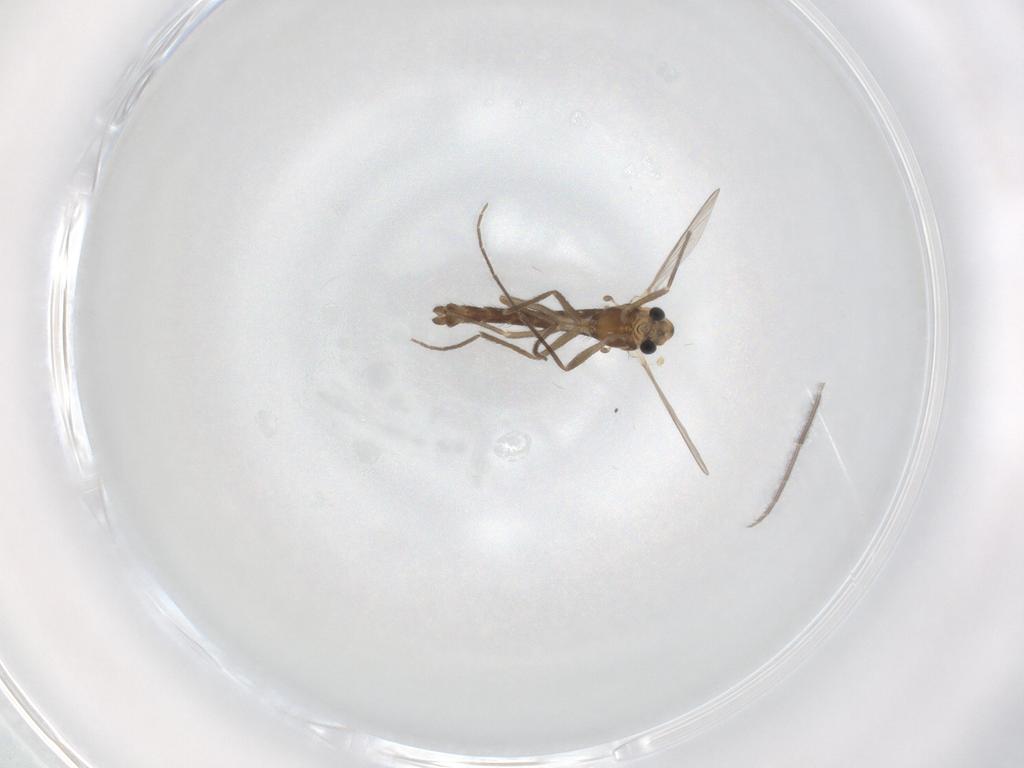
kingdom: Animalia
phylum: Arthropoda
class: Insecta
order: Diptera
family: Chironomidae
